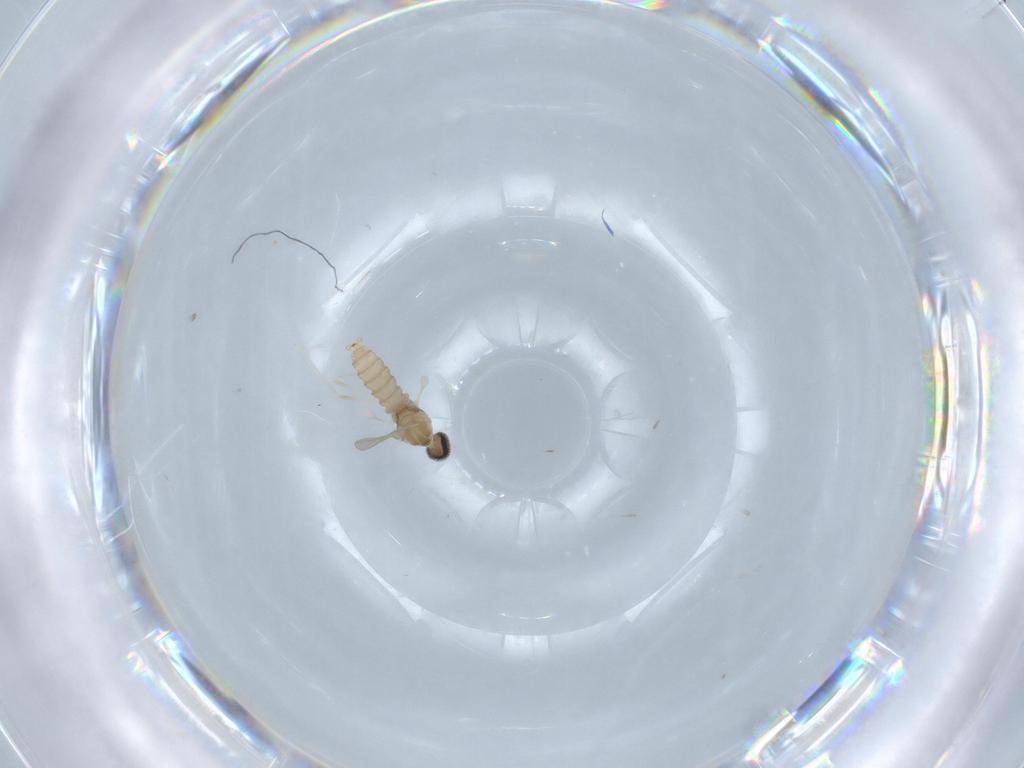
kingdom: Animalia
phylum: Arthropoda
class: Insecta
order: Diptera
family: Cecidomyiidae
